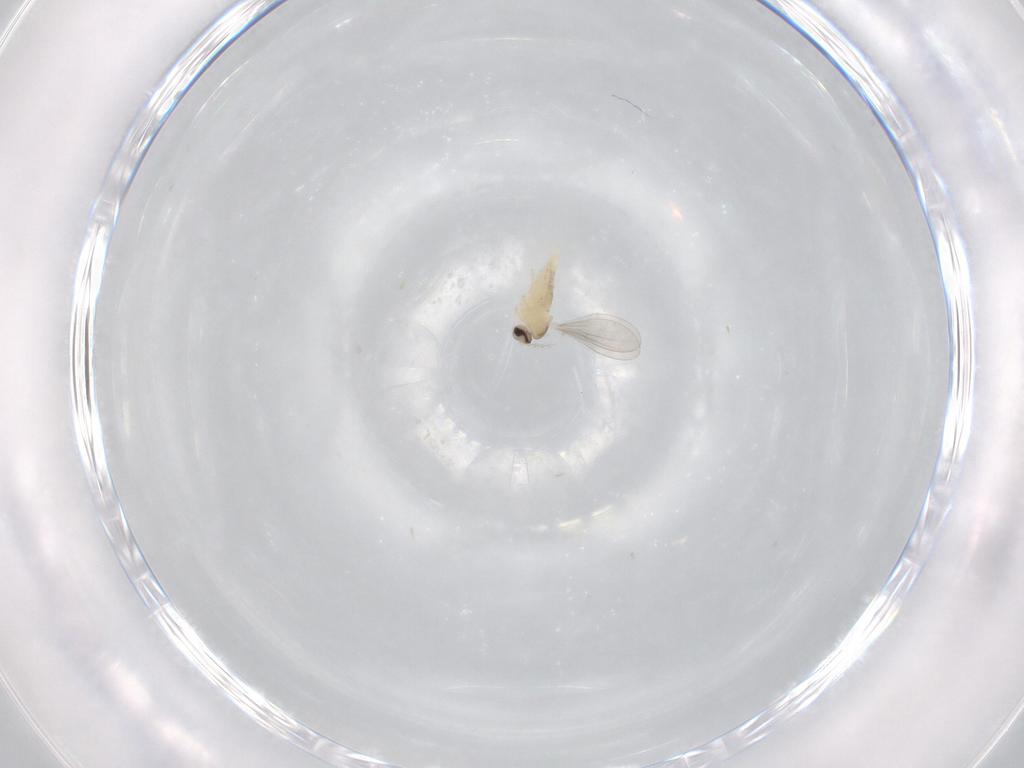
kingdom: Animalia
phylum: Arthropoda
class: Insecta
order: Diptera
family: Cecidomyiidae
